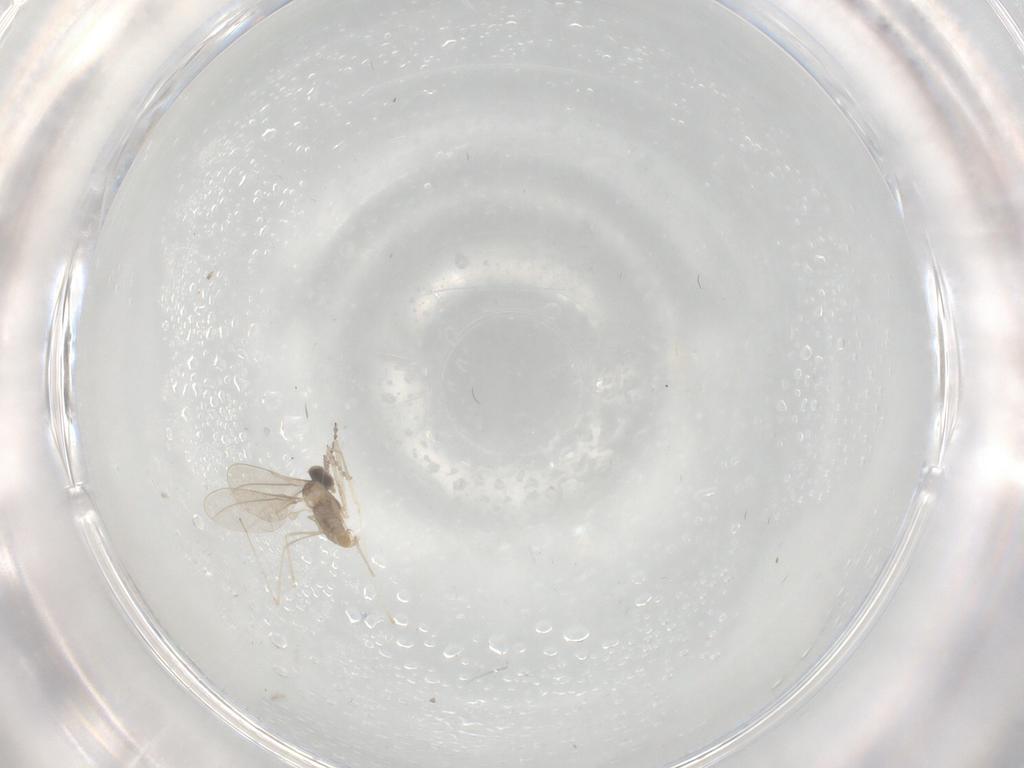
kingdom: Animalia
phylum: Arthropoda
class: Insecta
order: Diptera
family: Cecidomyiidae
